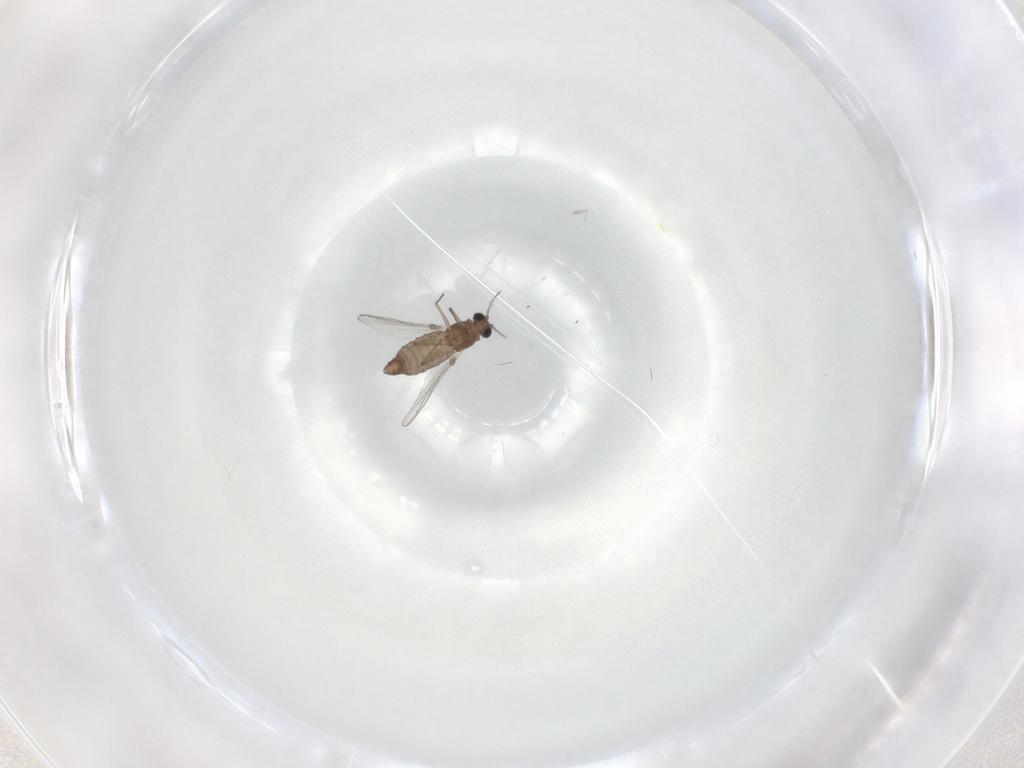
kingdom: Animalia
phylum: Arthropoda
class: Insecta
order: Diptera
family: Chironomidae
